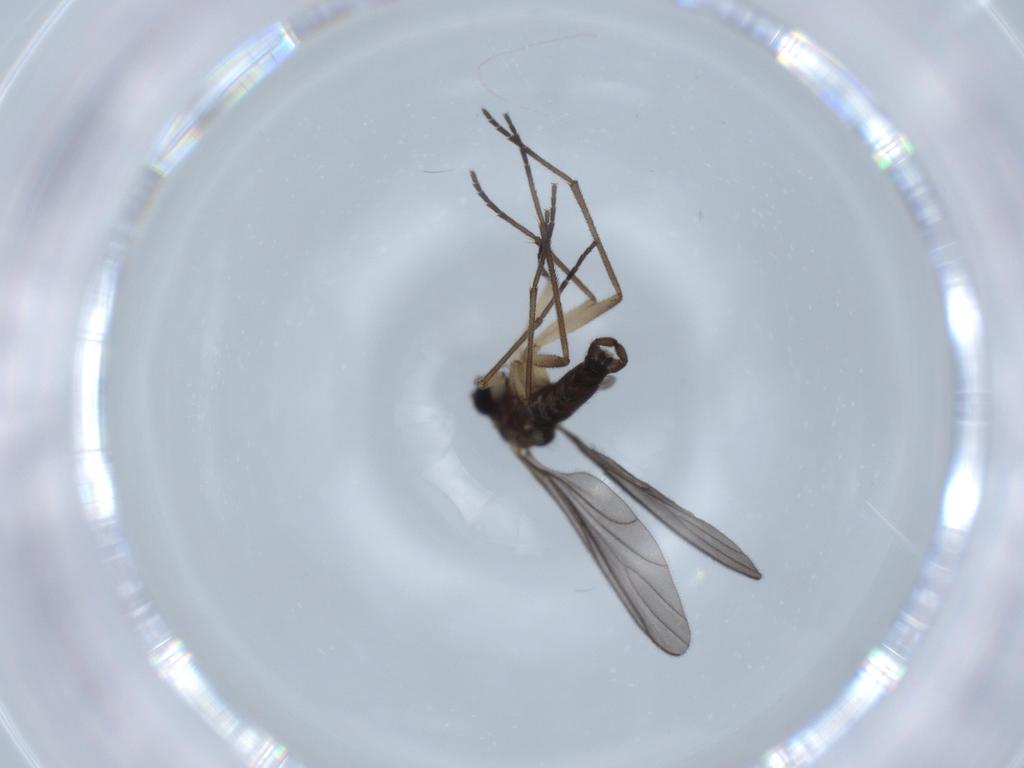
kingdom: Animalia
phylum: Arthropoda
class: Insecta
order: Diptera
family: Sciaridae
